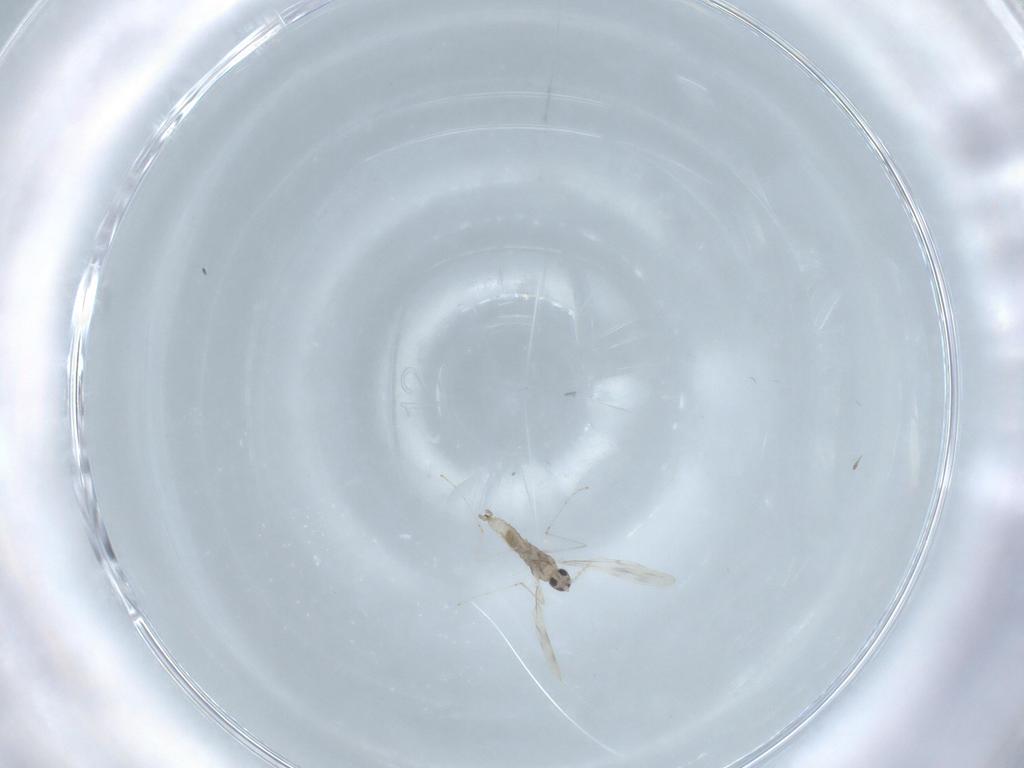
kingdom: Animalia
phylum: Arthropoda
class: Insecta
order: Diptera
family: Cecidomyiidae
